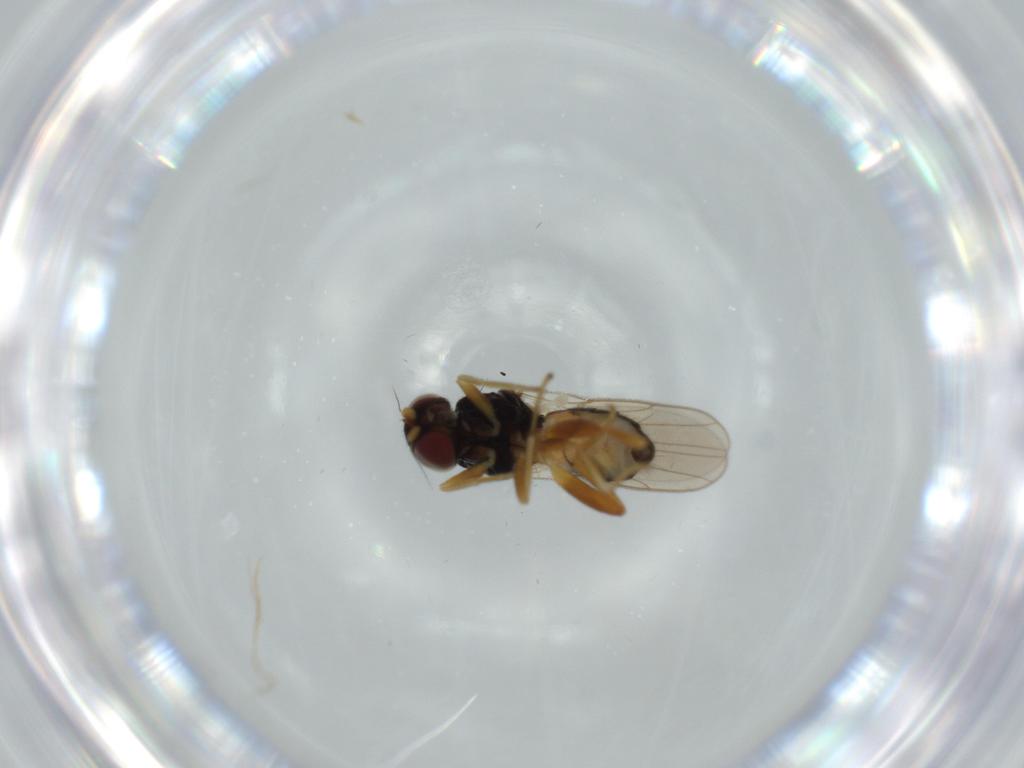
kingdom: Animalia
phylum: Arthropoda
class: Insecta
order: Diptera
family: Chloropidae
